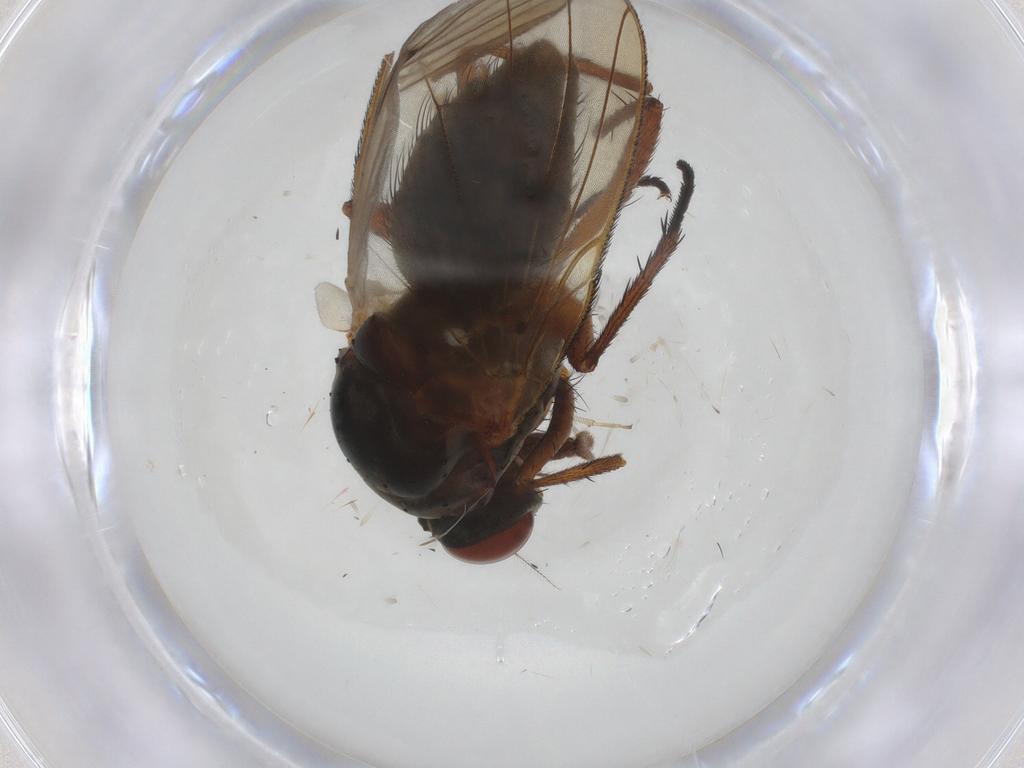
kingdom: Animalia
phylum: Arthropoda
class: Insecta
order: Diptera
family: Anthomyiidae
